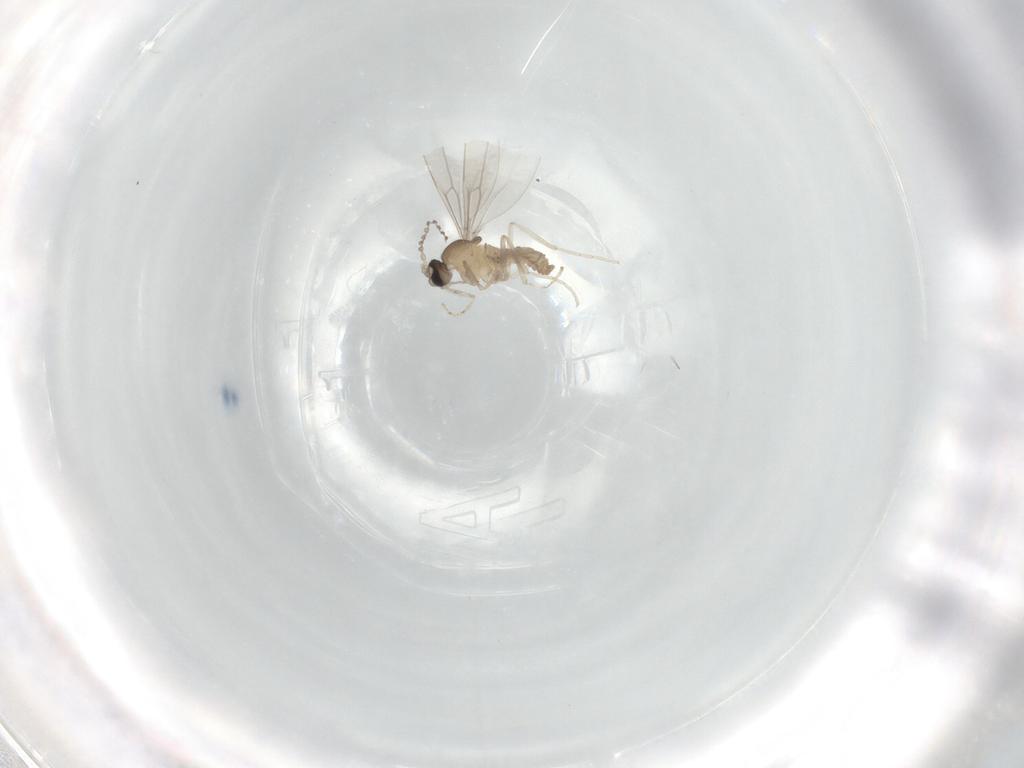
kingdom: Animalia
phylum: Arthropoda
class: Insecta
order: Diptera
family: Cecidomyiidae
